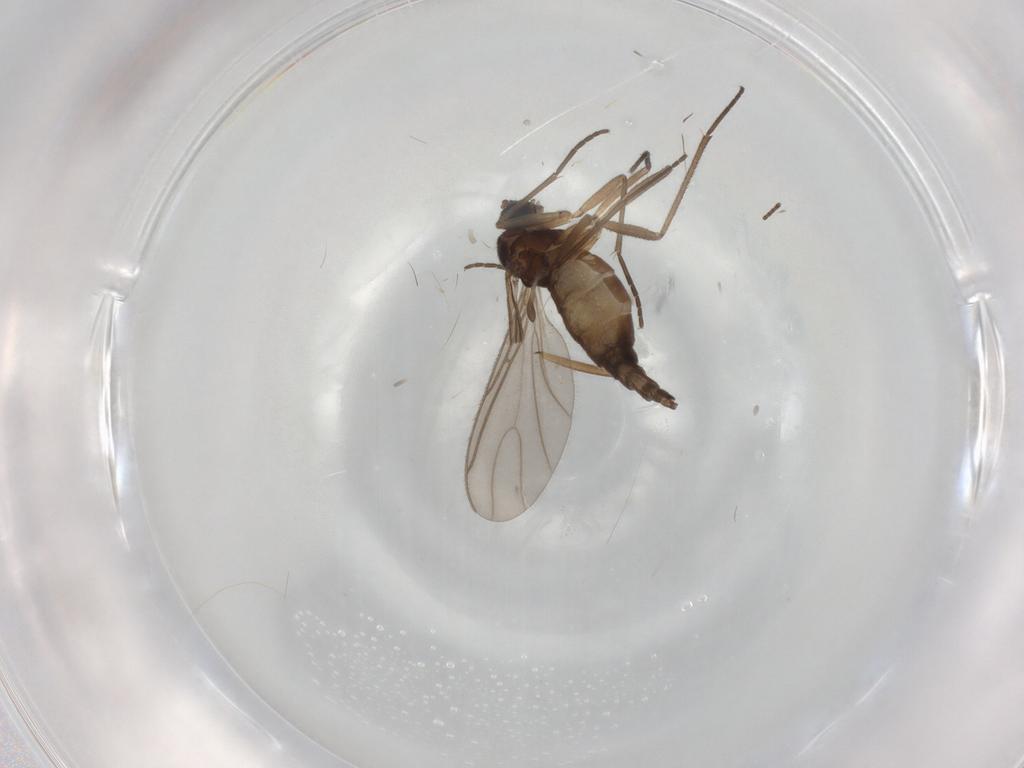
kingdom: Animalia
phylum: Arthropoda
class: Insecta
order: Diptera
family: Sciaridae
